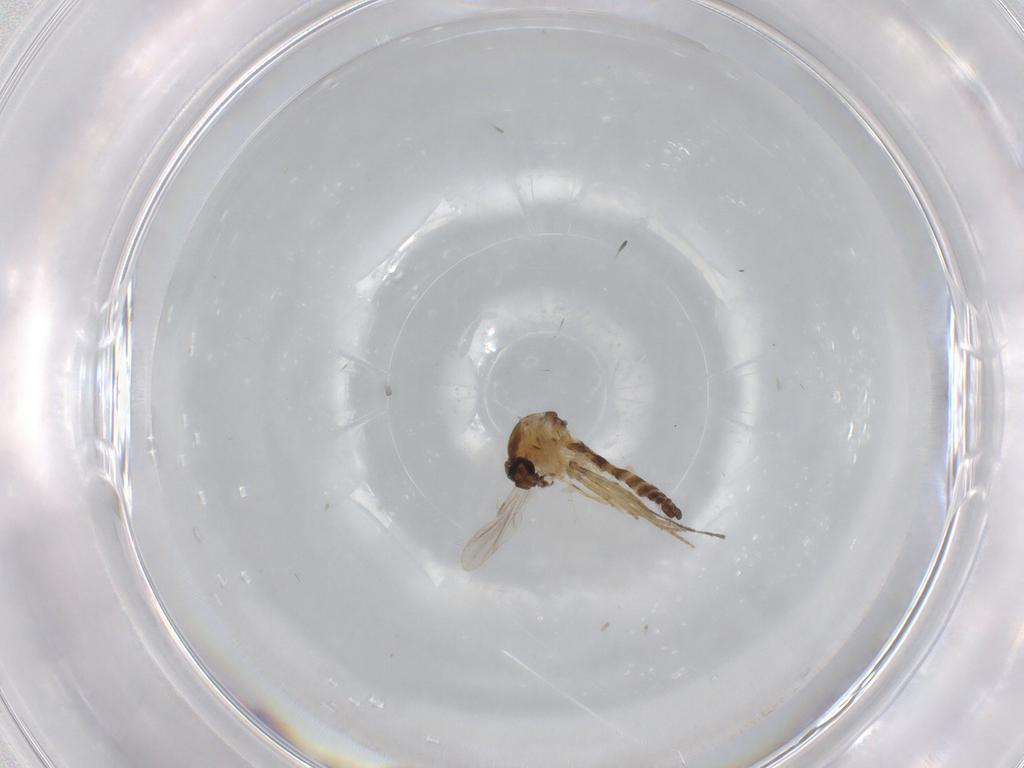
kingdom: Animalia
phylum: Arthropoda
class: Insecta
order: Diptera
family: Ceratopogonidae
